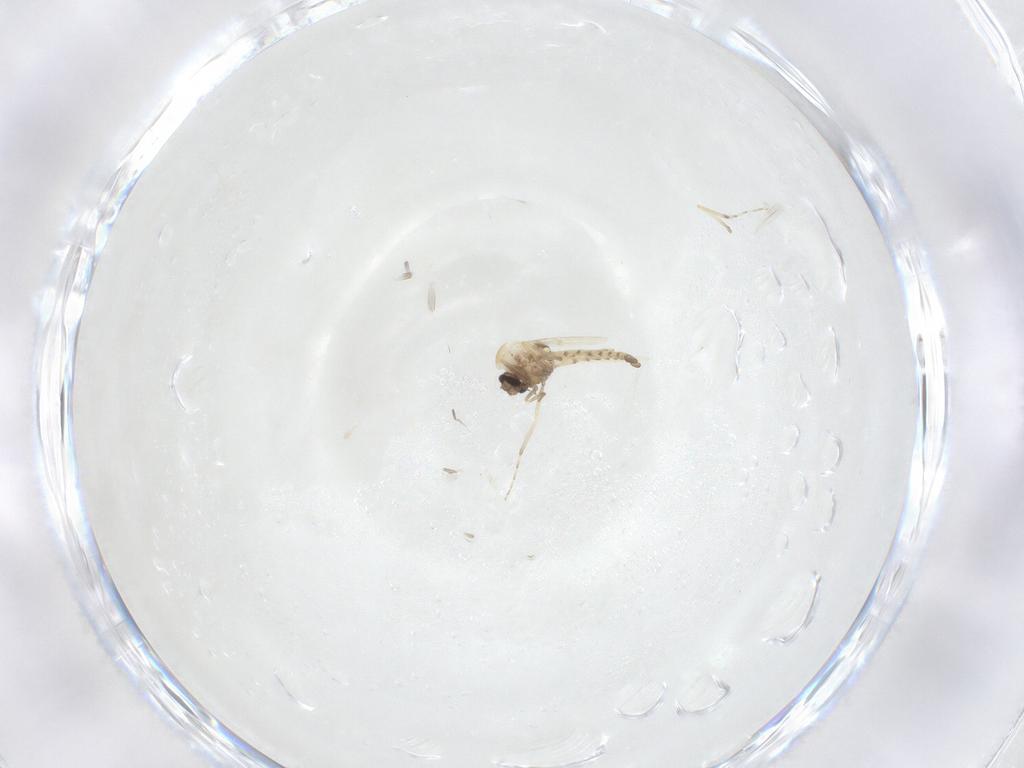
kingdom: Animalia
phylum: Arthropoda
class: Insecta
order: Diptera
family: Ceratopogonidae
